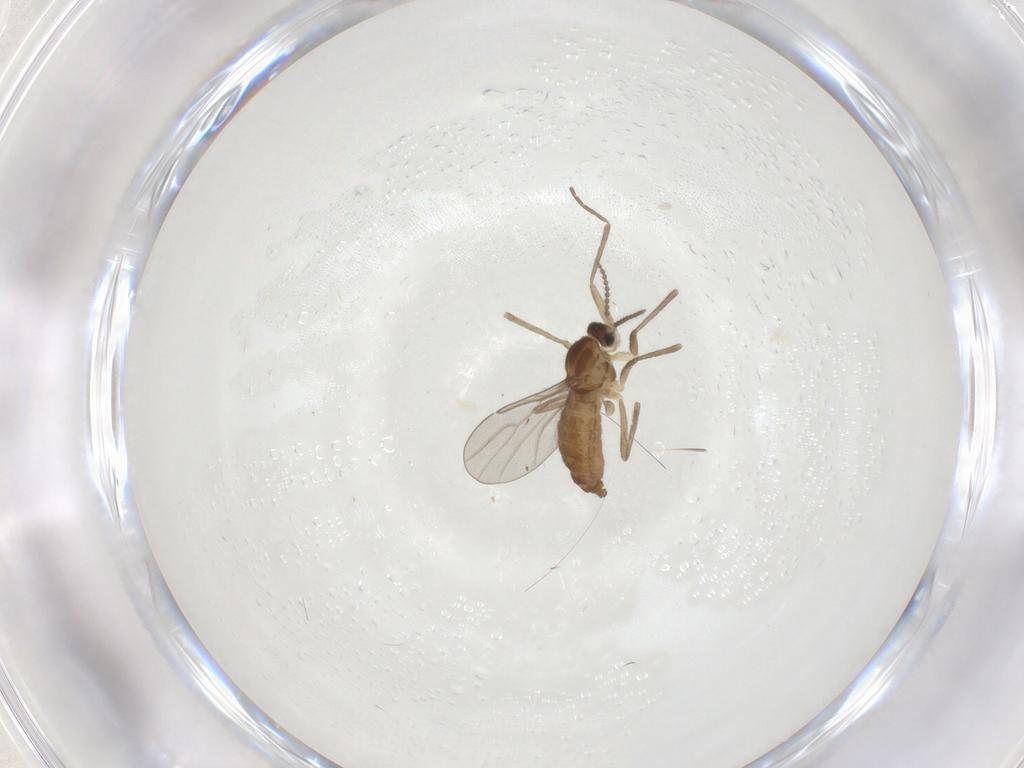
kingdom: Animalia
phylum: Arthropoda
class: Insecta
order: Diptera
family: Cecidomyiidae
